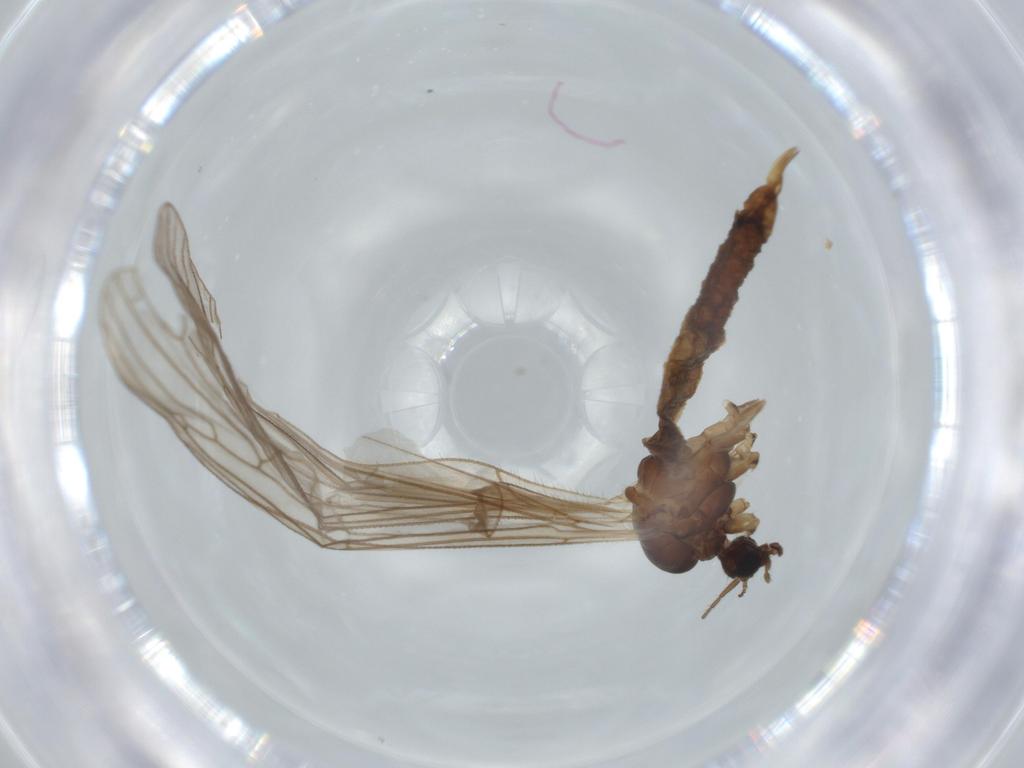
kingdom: Animalia
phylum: Arthropoda
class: Insecta
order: Diptera
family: Trichoceridae
